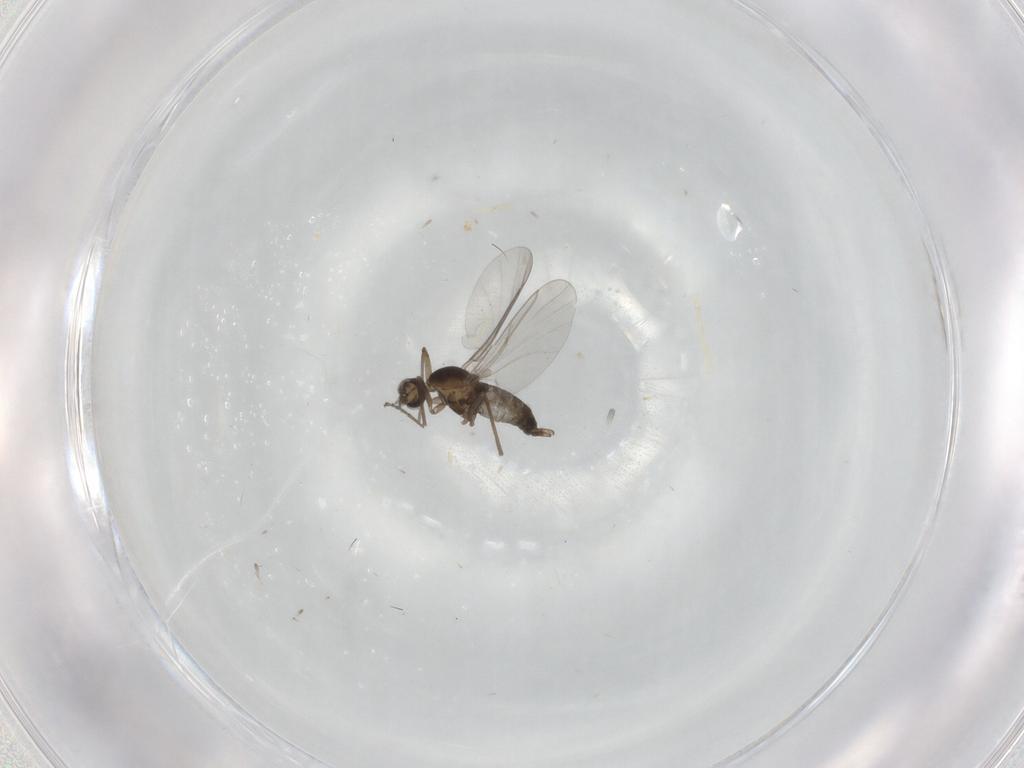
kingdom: Animalia
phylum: Arthropoda
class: Insecta
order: Diptera
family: Cecidomyiidae
